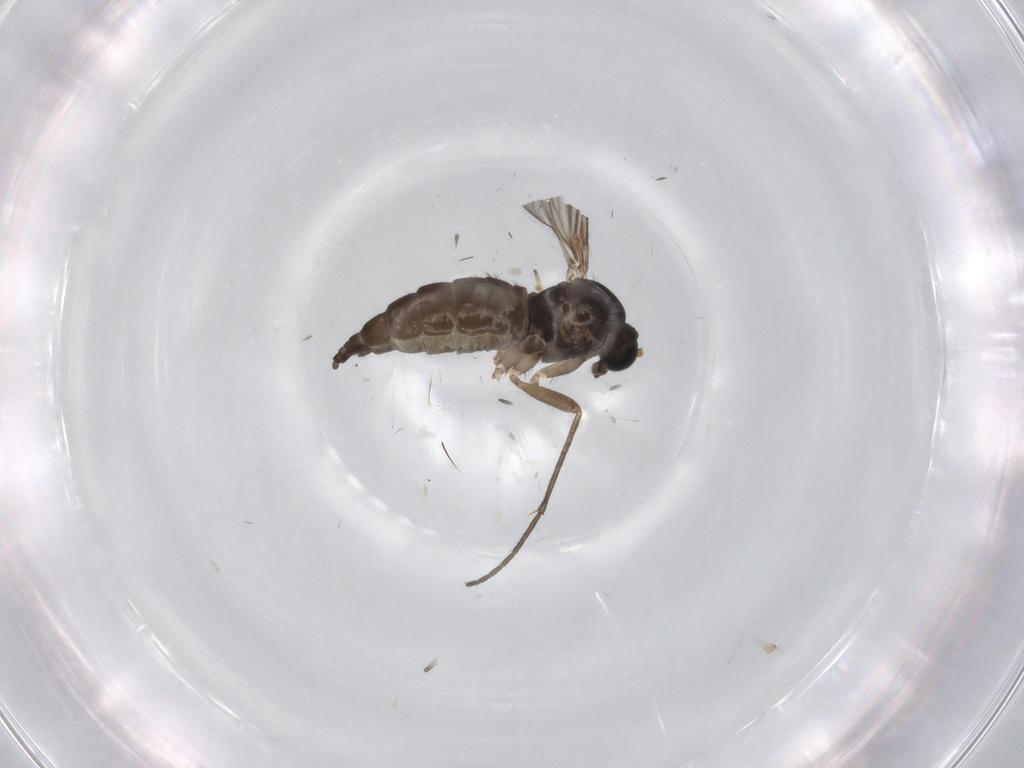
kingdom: Animalia
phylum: Arthropoda
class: Insecta
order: Diptera
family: Sciaridae
